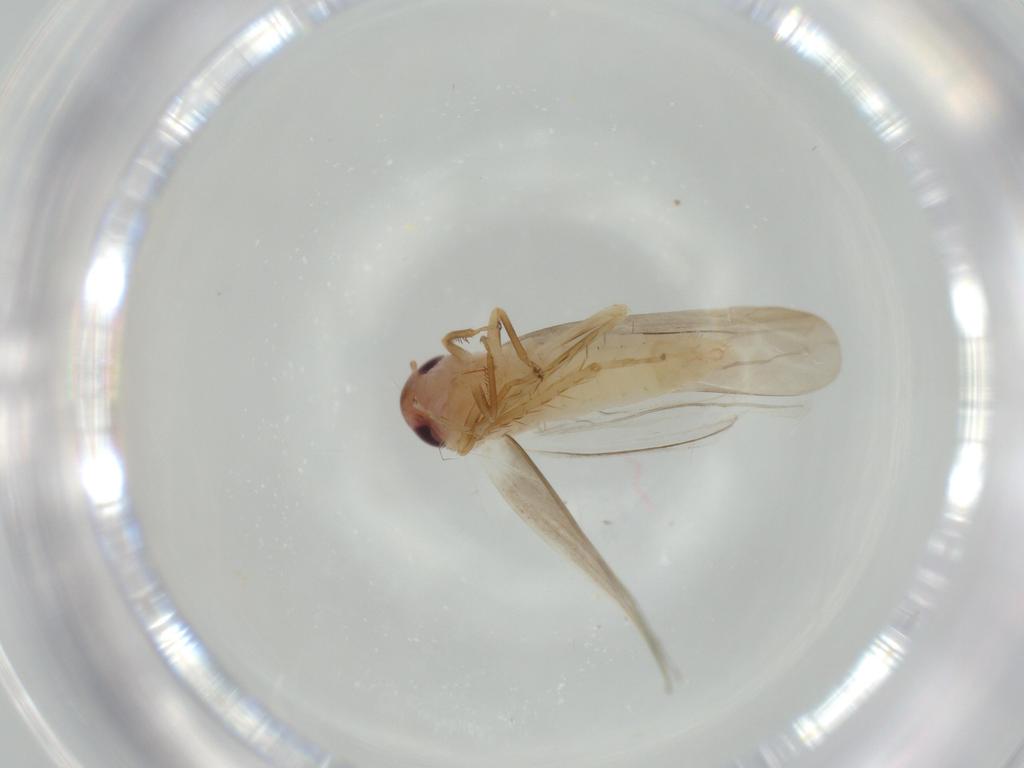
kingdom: Animalia
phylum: Arthropoda
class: Insecta
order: Hemiptera
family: Cicadellidae
